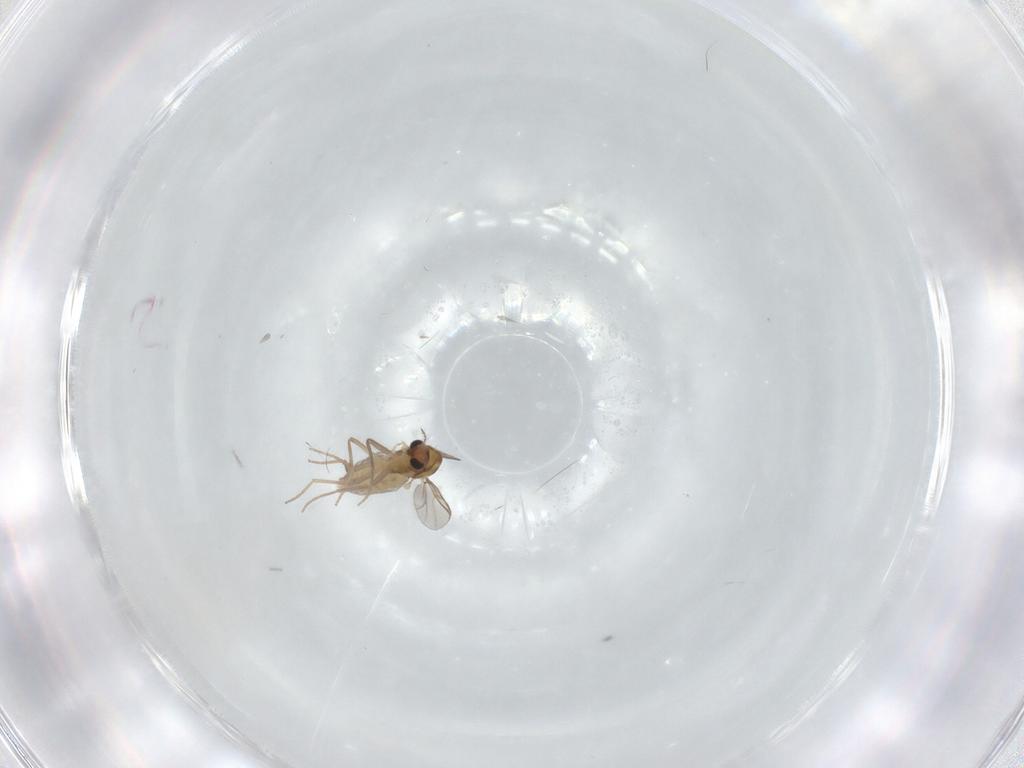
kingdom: Animalia
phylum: Arthropoda
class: Insecta
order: Diptera
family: Chironomidae
